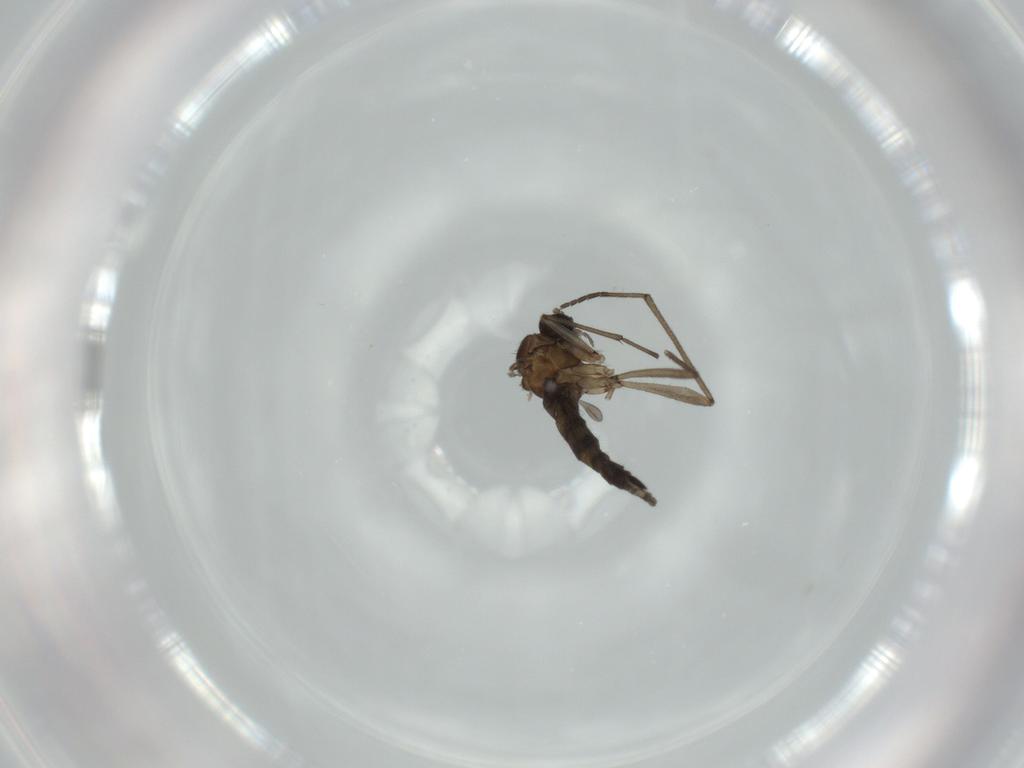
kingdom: Animalia
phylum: Arthropoda
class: Insecta
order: Diptera
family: Sciaridae
